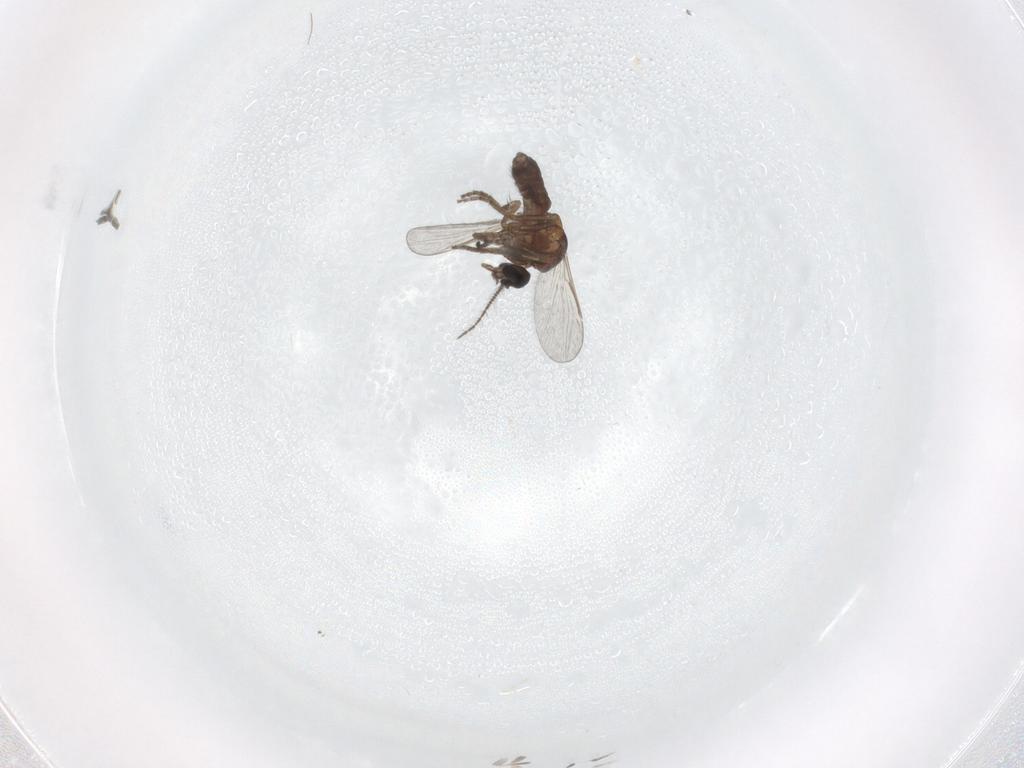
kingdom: Animalia
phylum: Arthropoda
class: Insecta
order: Diptera
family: Ceratopogonidae
